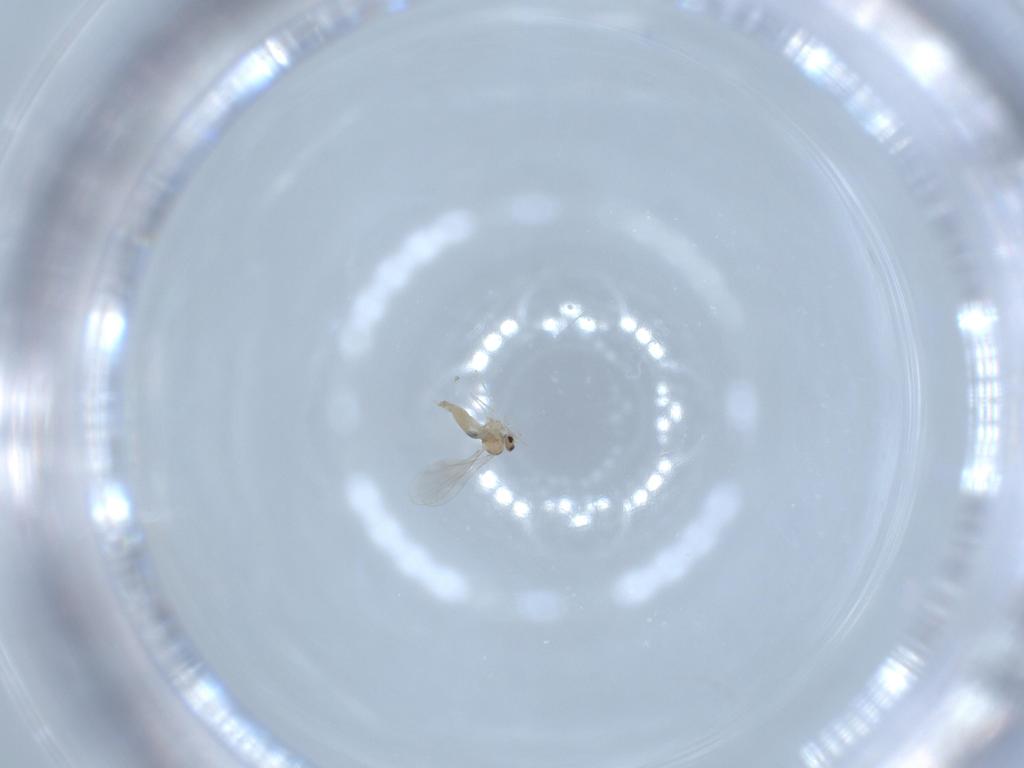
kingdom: Animalia
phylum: Arthropoda
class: Insecta
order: Diptera
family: Cecidomyiidae
